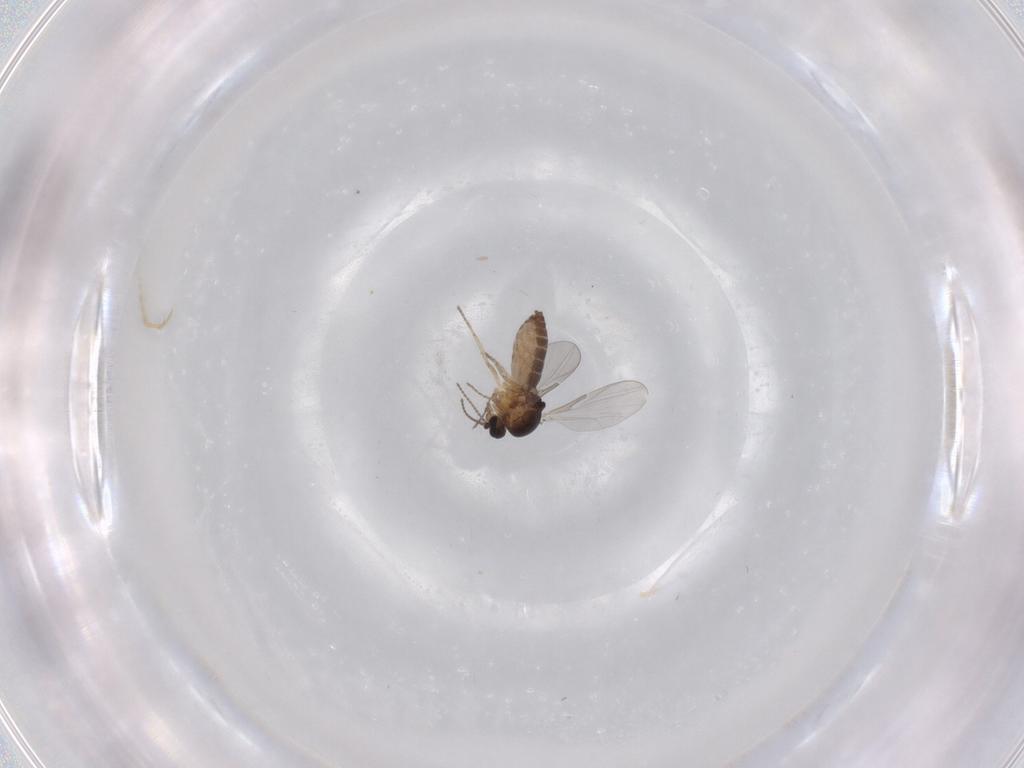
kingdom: Animalia
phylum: Arthropoda
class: Insecta
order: Diptera
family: Ceratopogonidae
